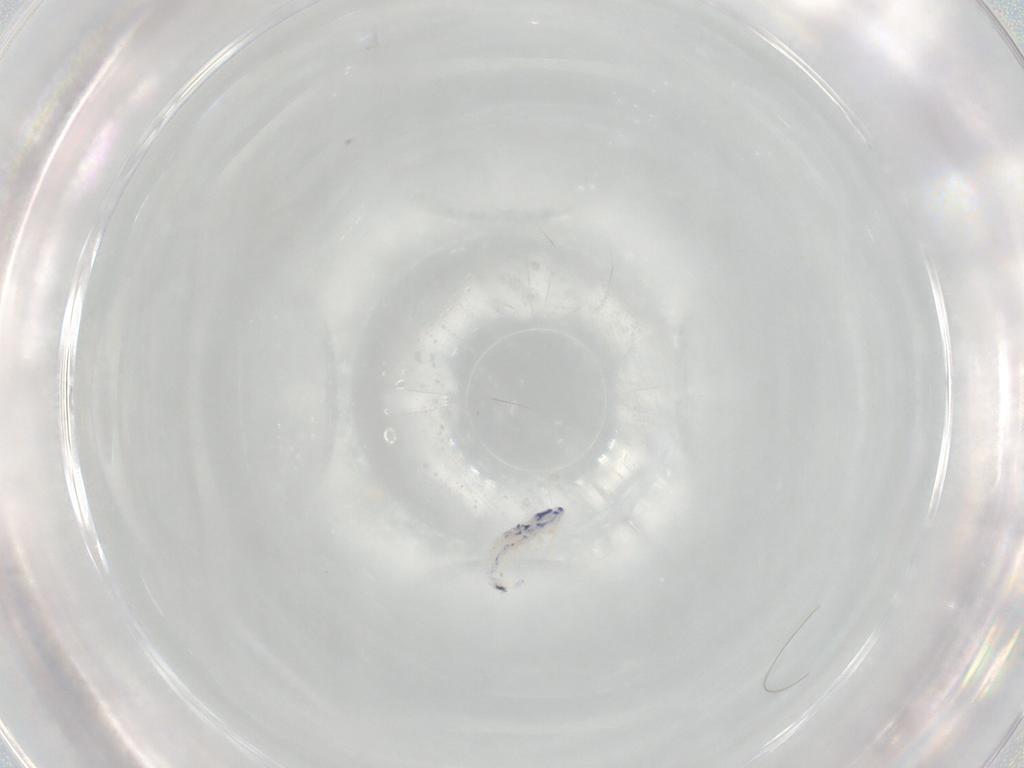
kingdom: Animalia
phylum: Arthropoda
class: Collembola
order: Entomobryomorpha
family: Entomobryidae
